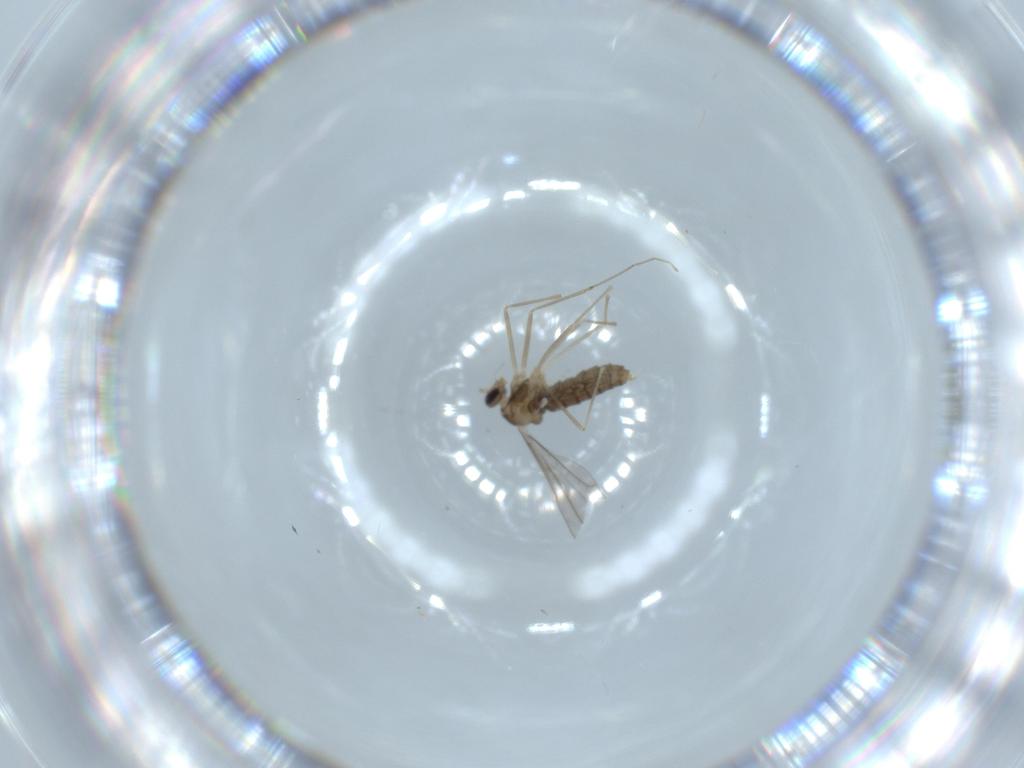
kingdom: Animalia
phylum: Arthropoda
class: Insecta
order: Diptera
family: Cecidomyiidae
